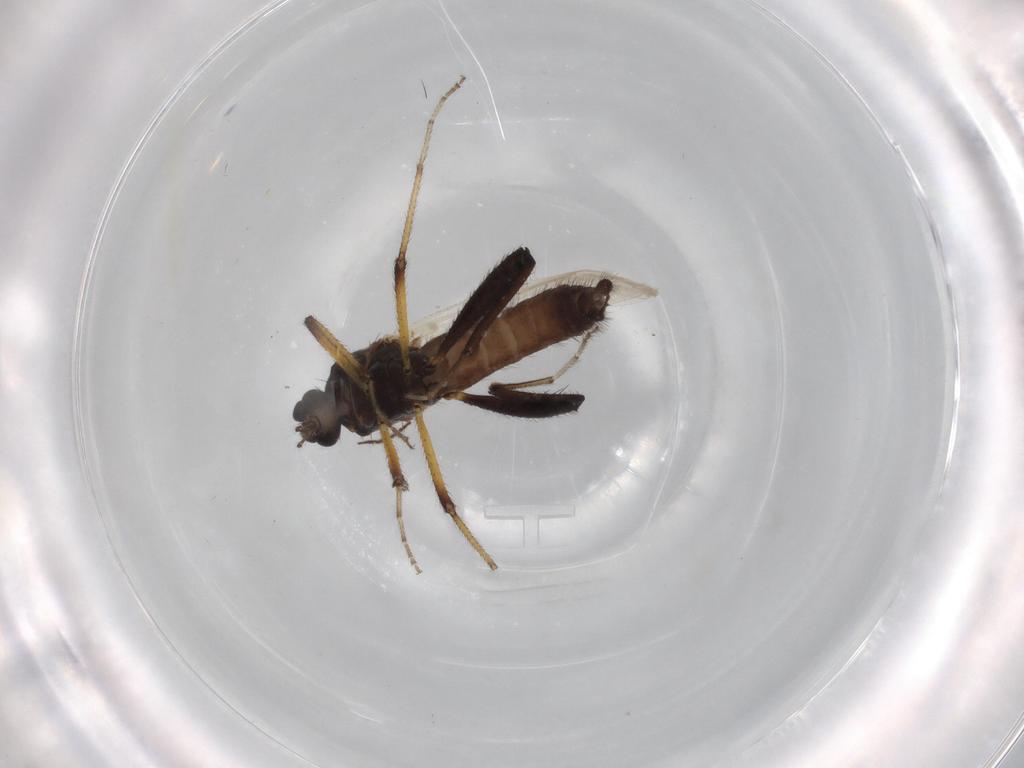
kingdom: Animalia
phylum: Arthropoda
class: Insecta
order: Diptera
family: Ceratopogonidae
